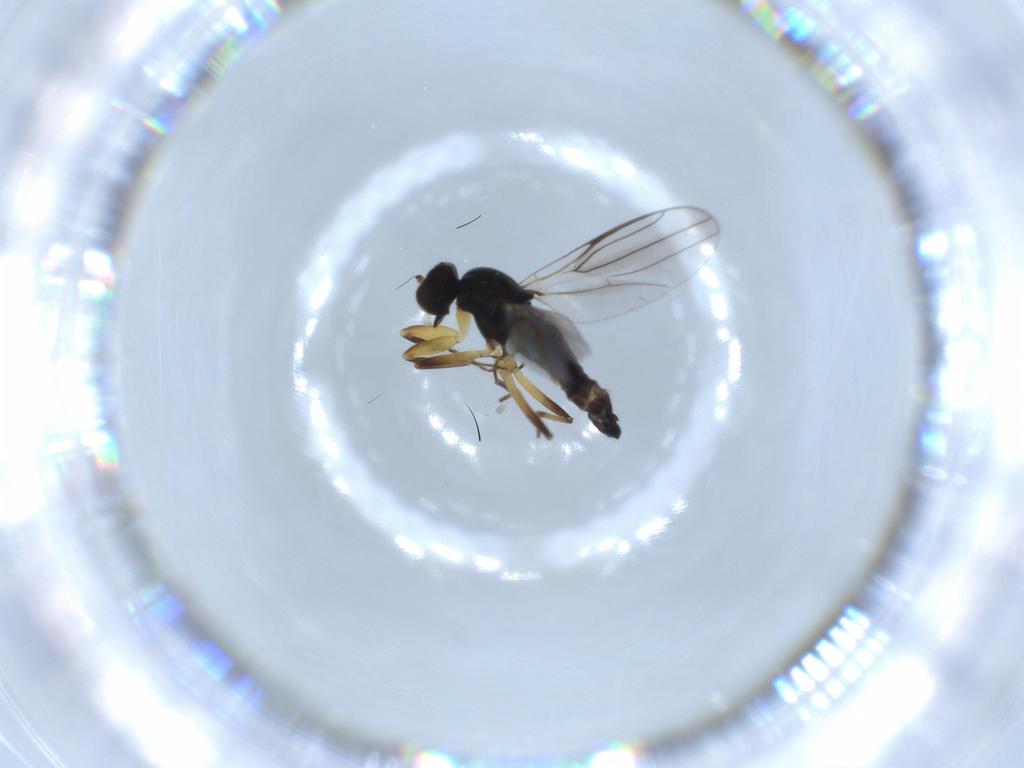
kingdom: Animalia
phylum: Arthropoda
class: Insecta
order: Diptera
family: Hybotidae
